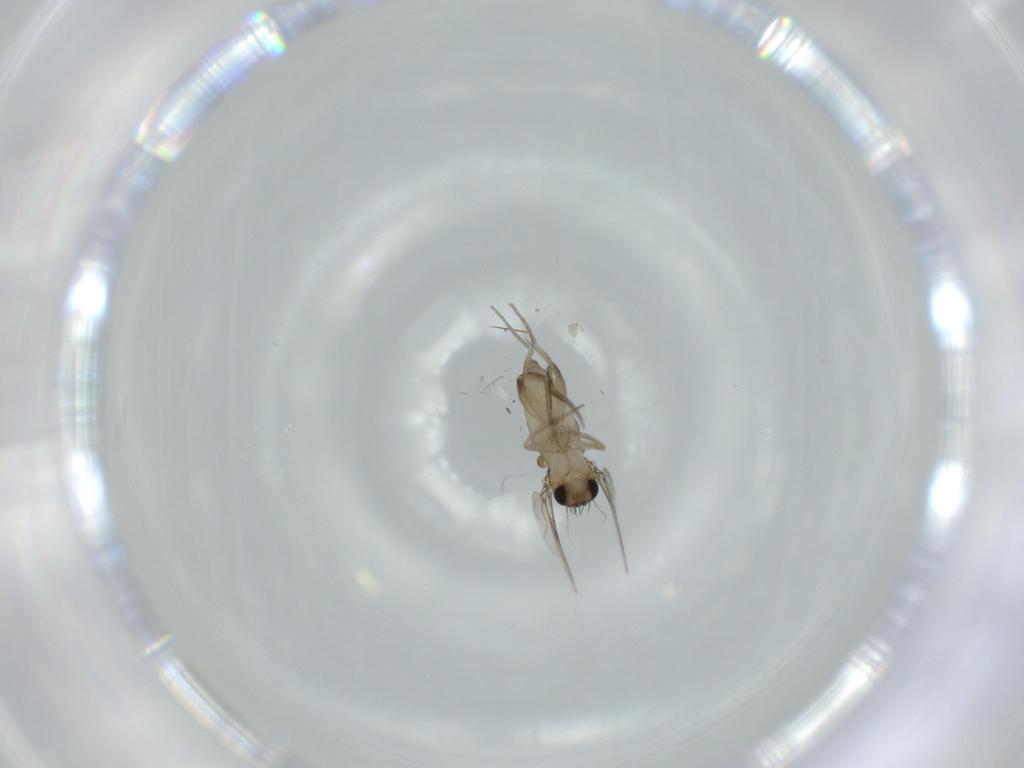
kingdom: Animalia
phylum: Arthropoda
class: Insecta
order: Diptera
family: Phoridae
